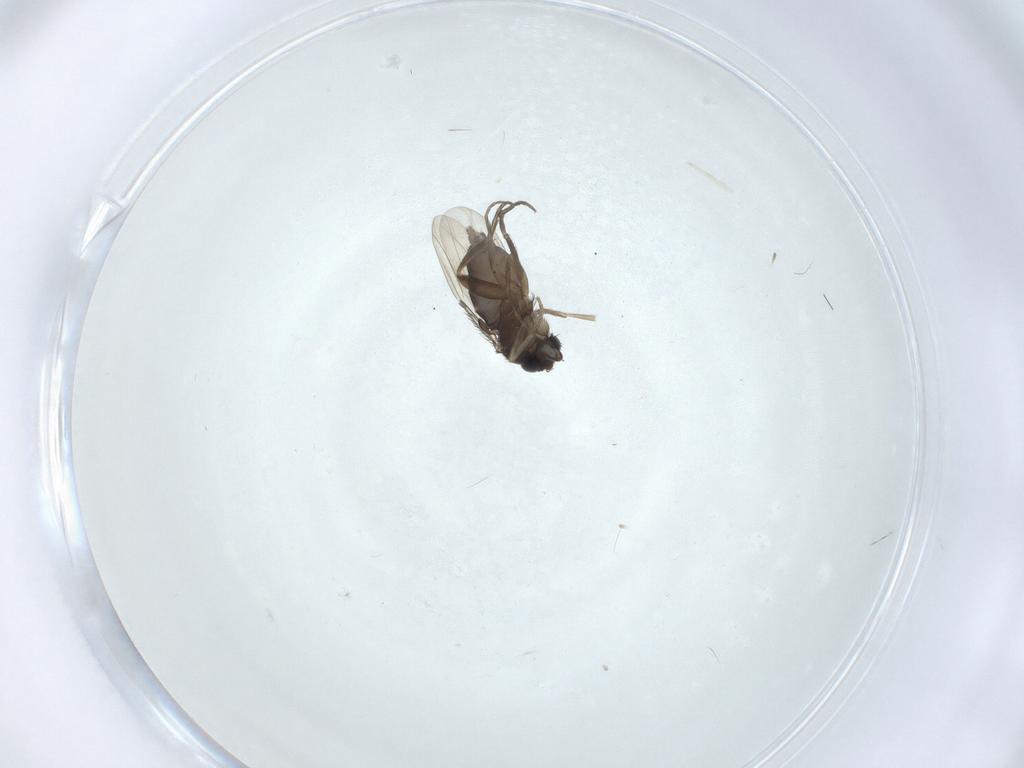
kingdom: Animalia
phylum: Arthropoda
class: Insecta
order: Diptera
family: Phoridae
